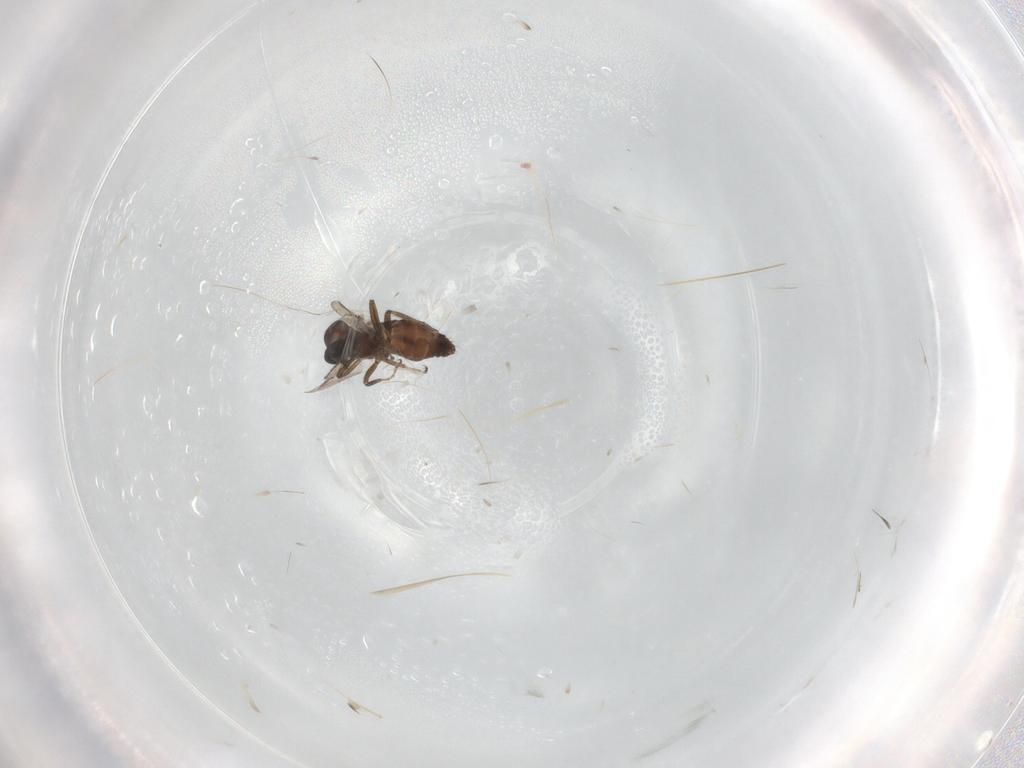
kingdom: Animalia
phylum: Arthropoda
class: Insecta
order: Diptera
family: Ceratopogonidae
